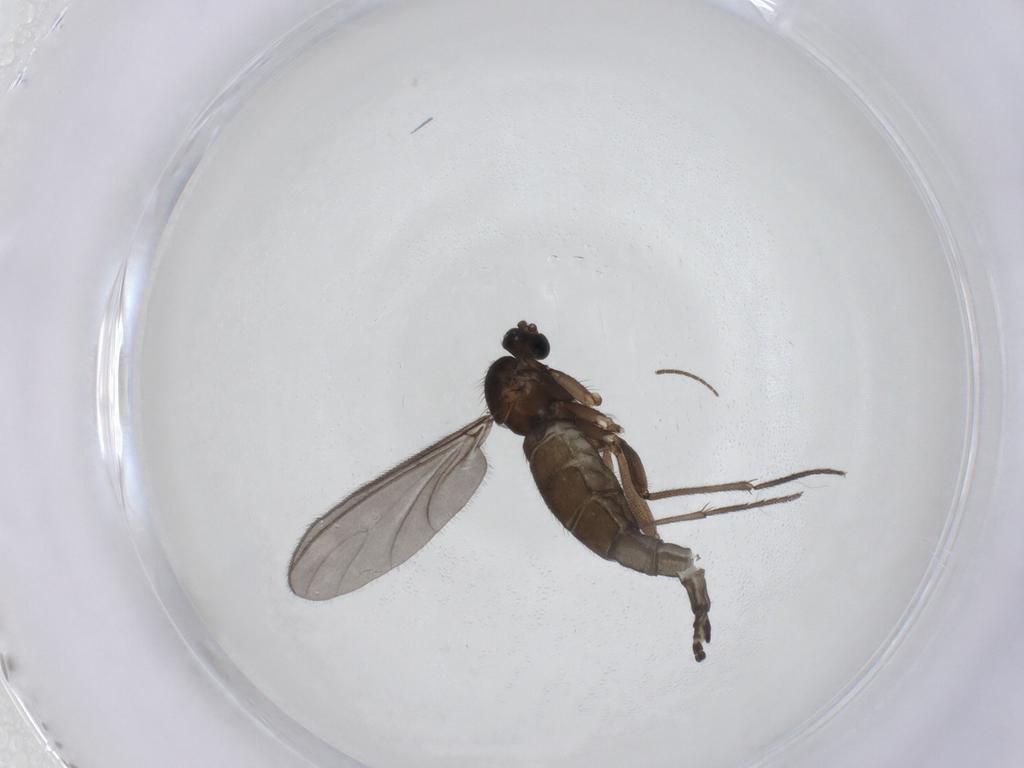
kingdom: Animalia
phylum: Arthropoda
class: Insecta
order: Diptera
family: Sciaridae
